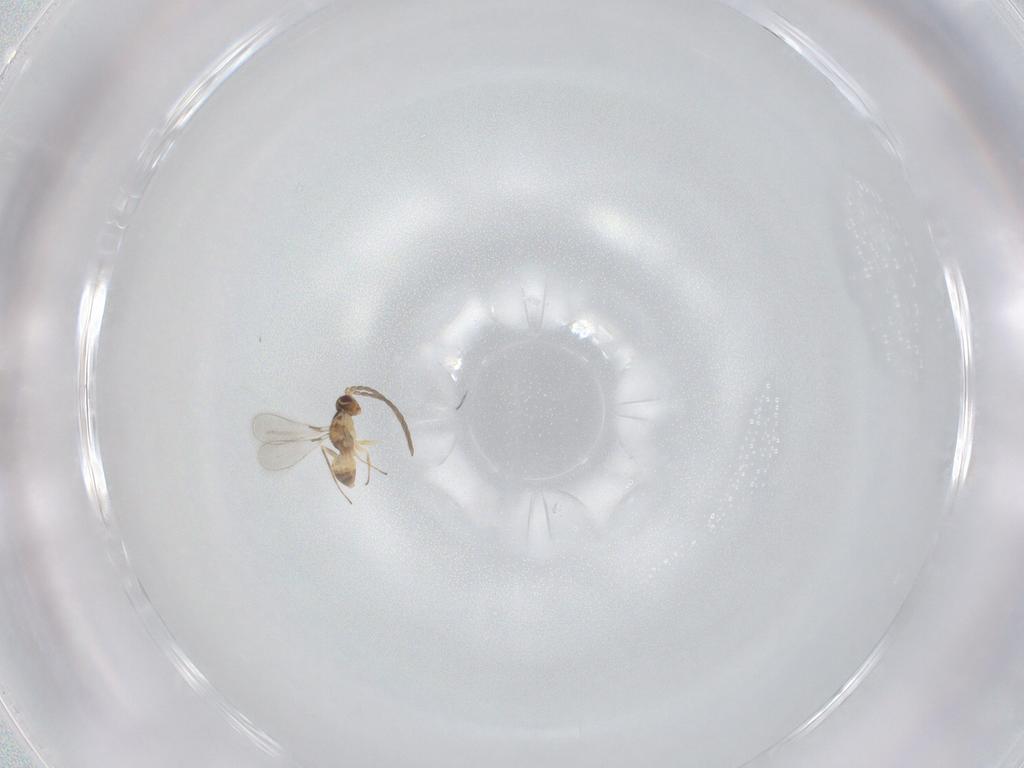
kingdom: Animalia
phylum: Arthropoda
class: Insecta
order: Hymenoptera
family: Mymaridae
